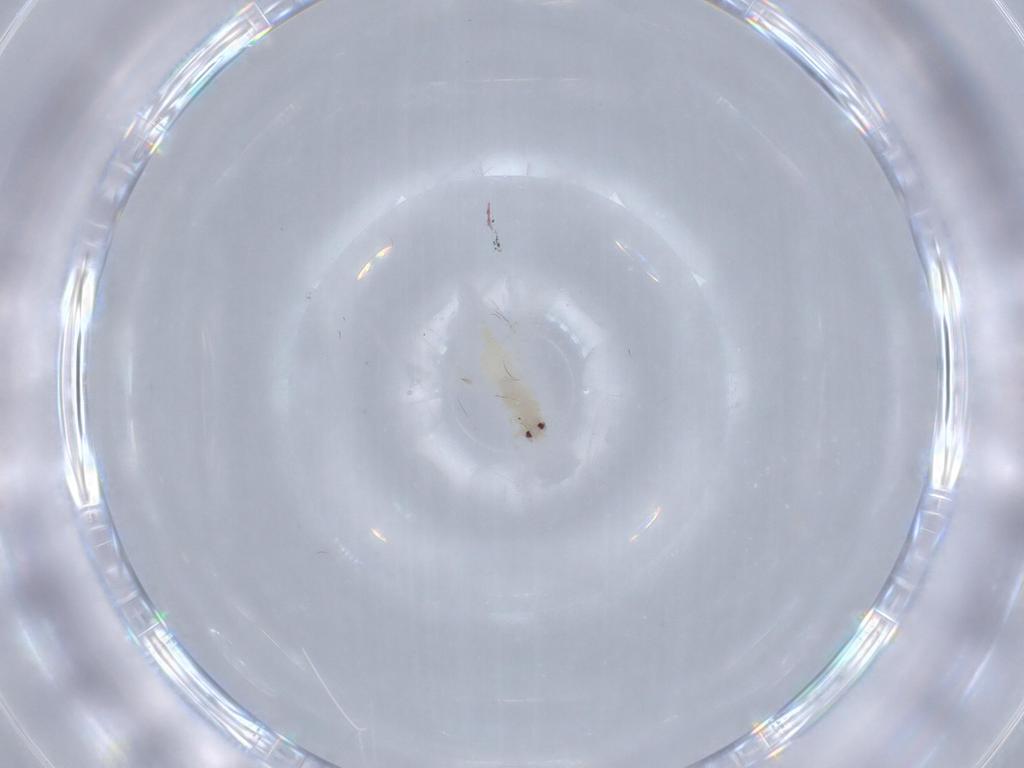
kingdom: Animalia
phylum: Arthropoda
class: Insecta
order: Hemiptera
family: Aleyrodidae
